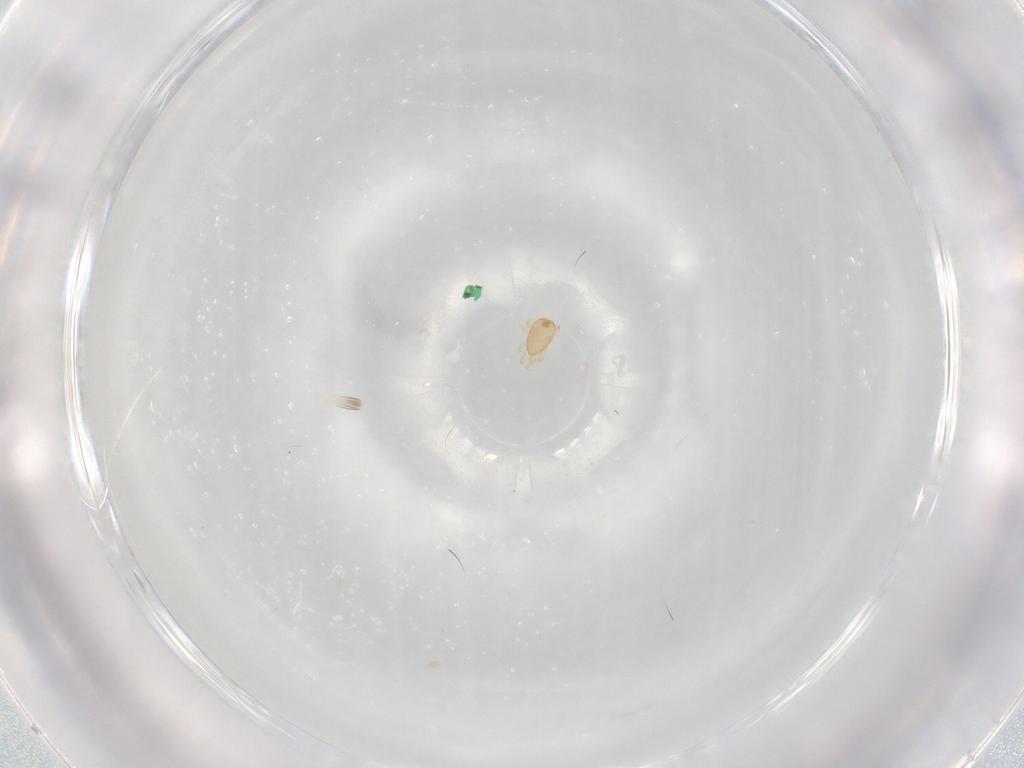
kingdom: Animalia
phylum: Arthropoda
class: Arachnida
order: Mesostigmata
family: Ascidae
